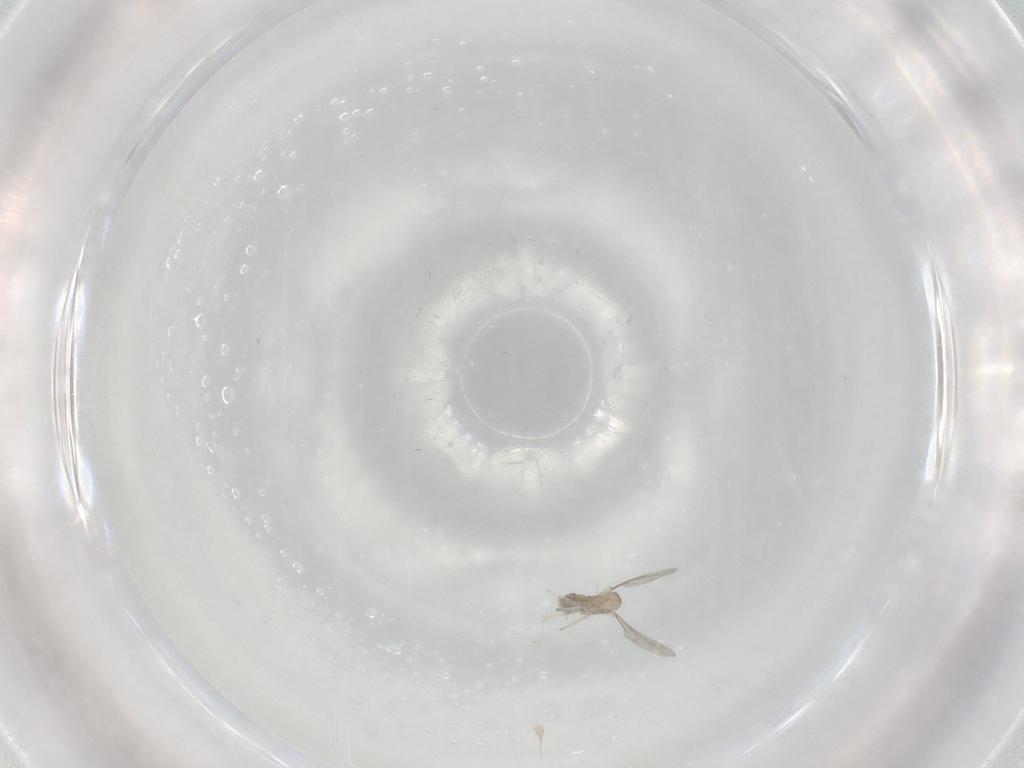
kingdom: Animalia
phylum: Arthropoda
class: Insecta
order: Diptera
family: Cecidomyiidae
